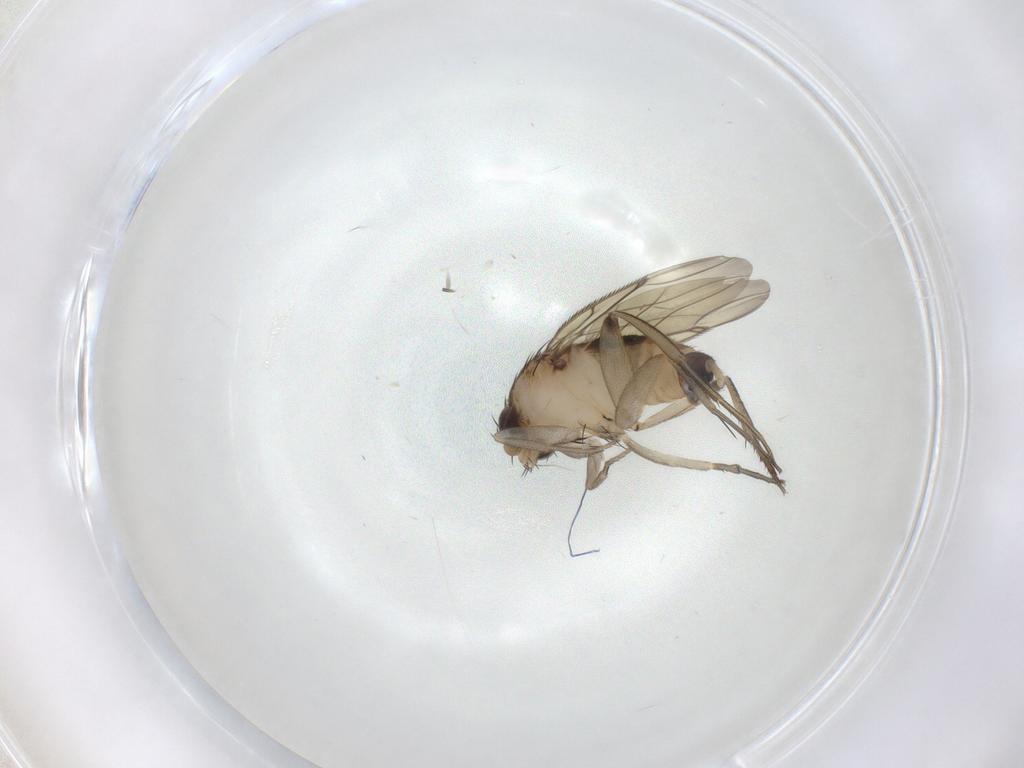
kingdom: Animalia
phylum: Arthropoda
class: Insecta
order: Diptera
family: Phoridae
